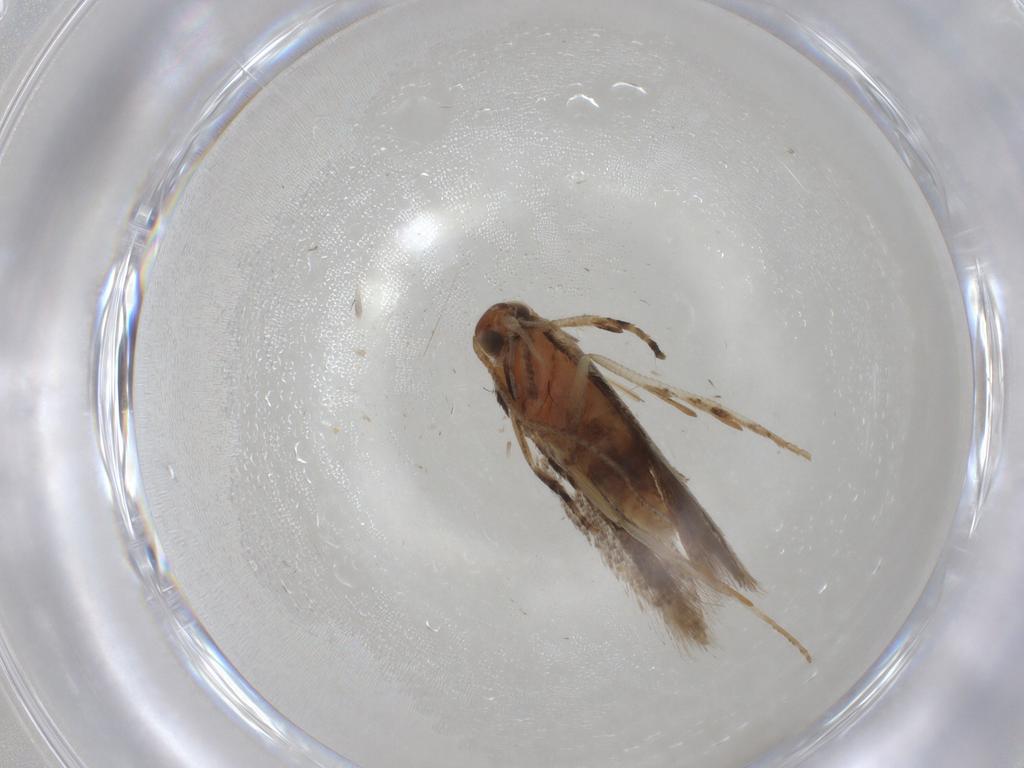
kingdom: Animalia
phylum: Arthropoda
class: Insecta
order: Lepidoptera
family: Gelechiidae
